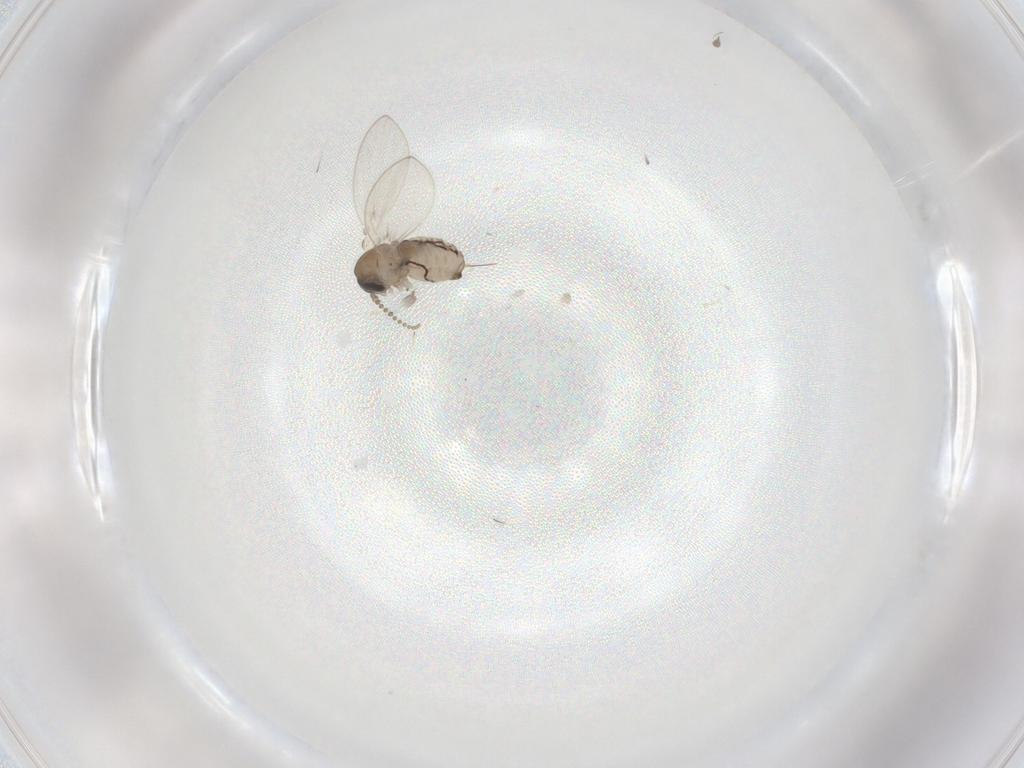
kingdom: Animalia
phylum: Arthropoda
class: Insecta
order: Diptera
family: Psychodidae
